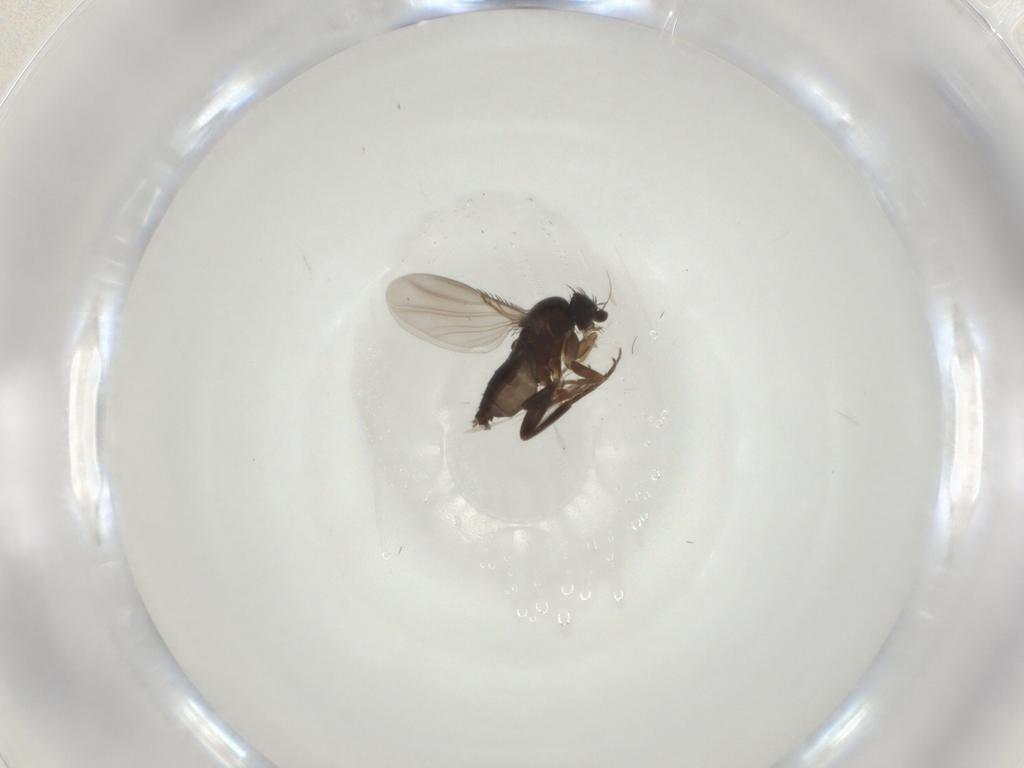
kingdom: Animalia
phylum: Arthropoda
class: Insecta
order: Diptera
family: Phoridae
